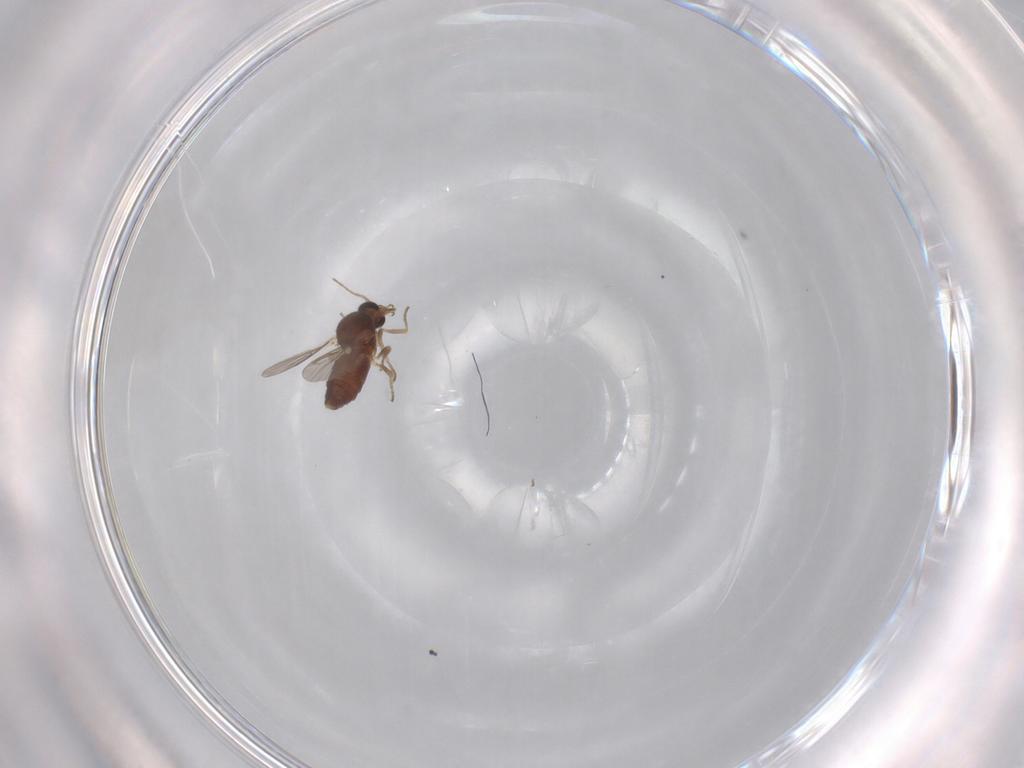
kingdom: Animalia
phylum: Arthropoda
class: Insecta
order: Diptera
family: Ceratopogonidae
